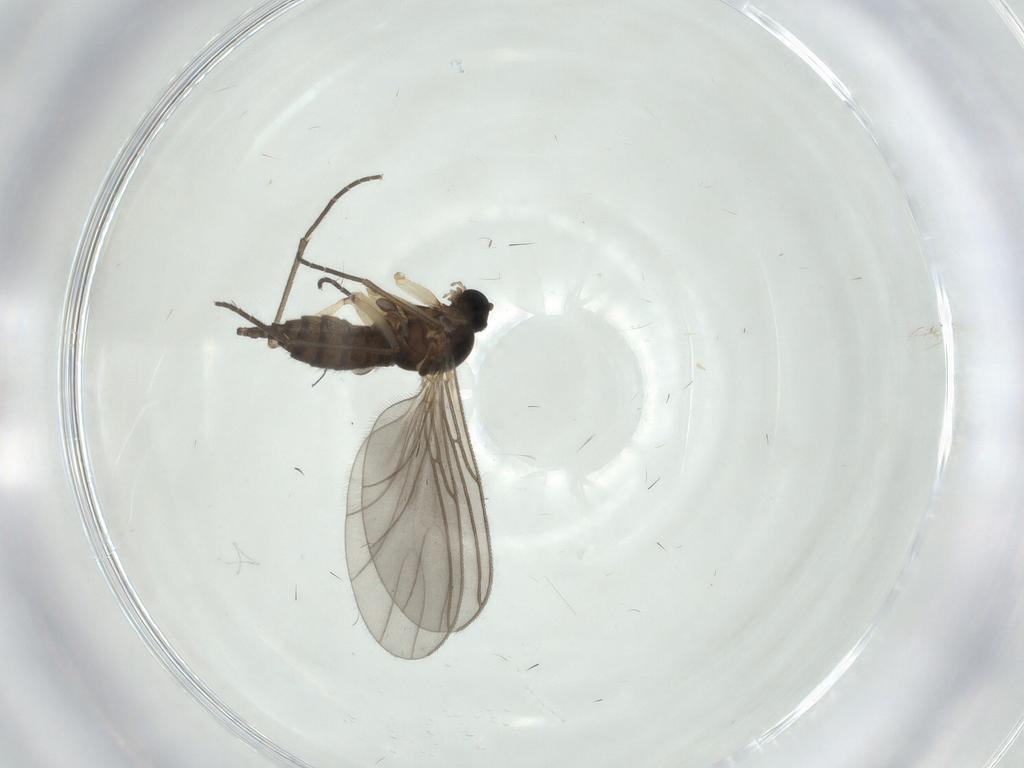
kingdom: Animalia
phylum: Arthropoda
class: Insecta
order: Diptera
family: Sciaridae
